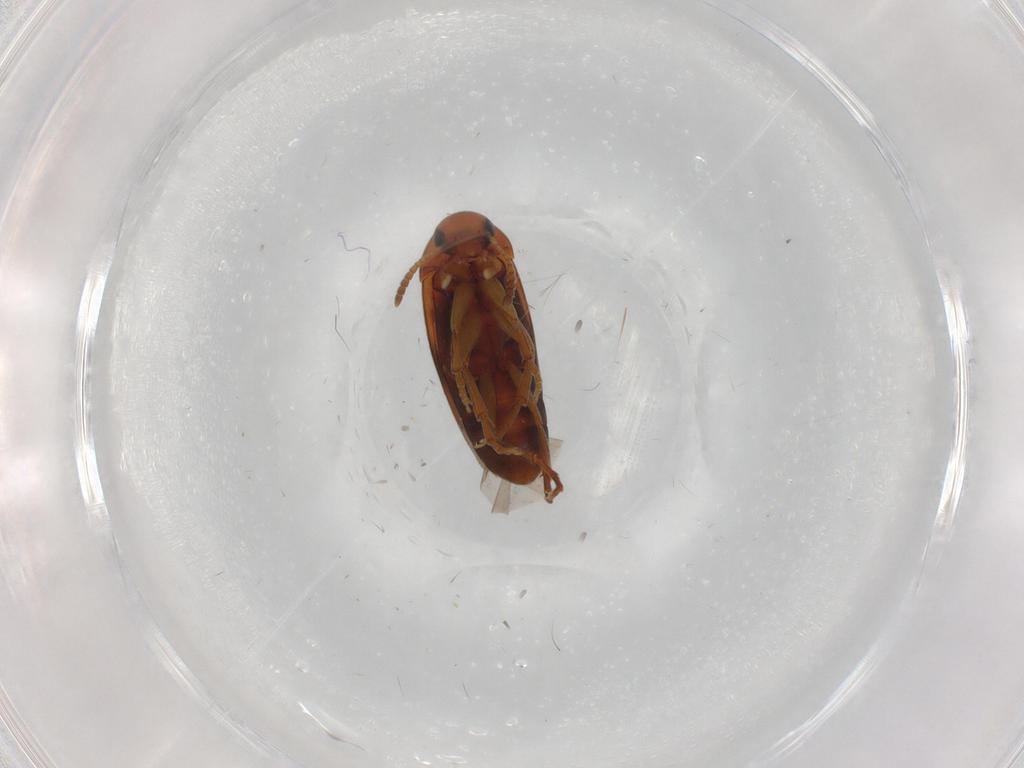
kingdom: Animalia
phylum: Arthropoda
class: Insecta
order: Coleoptera
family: Scraptiidae
